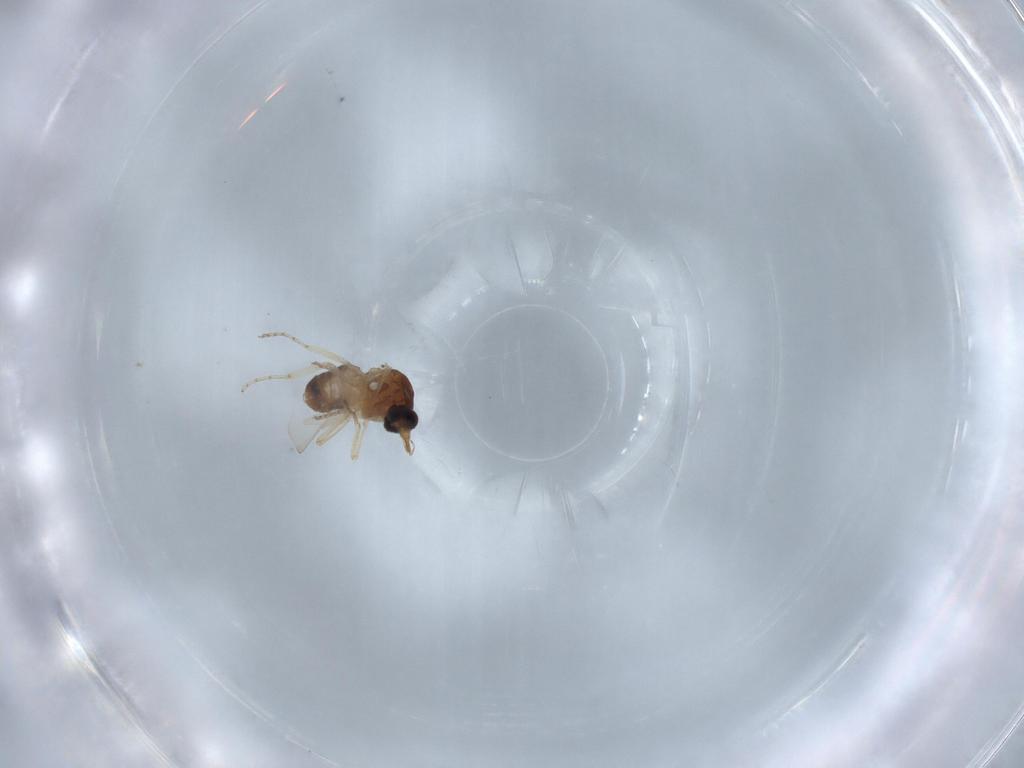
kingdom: Animalia
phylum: Arthropoda
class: Insecta
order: Diptera
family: Ceratopogonidae
